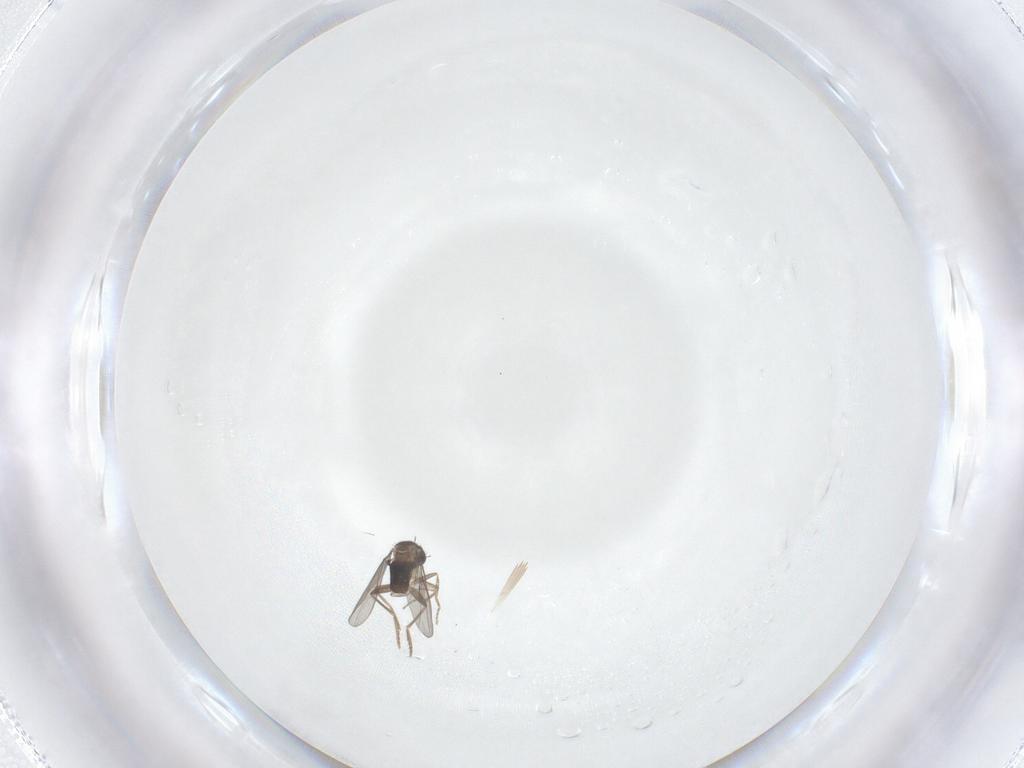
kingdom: Animalia
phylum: Arthropoda
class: Insecta
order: Diptera
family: Phoridae
